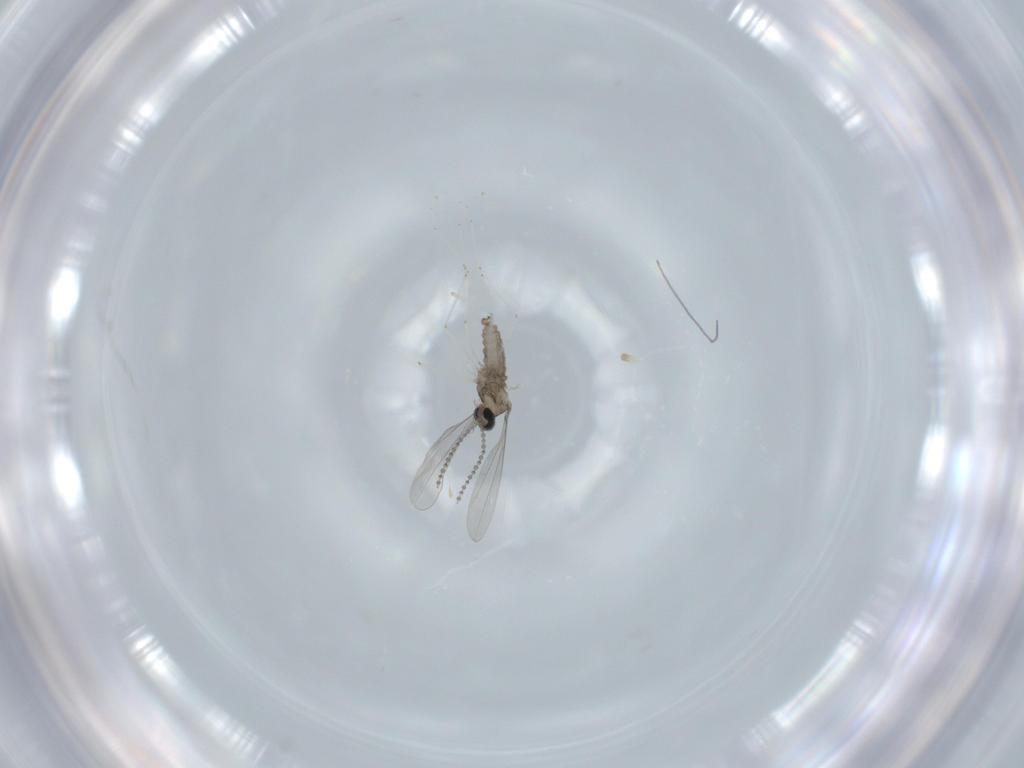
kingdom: Animalia
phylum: Arthropoda
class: Insecta
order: Diptera
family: Cecidomyiidae
